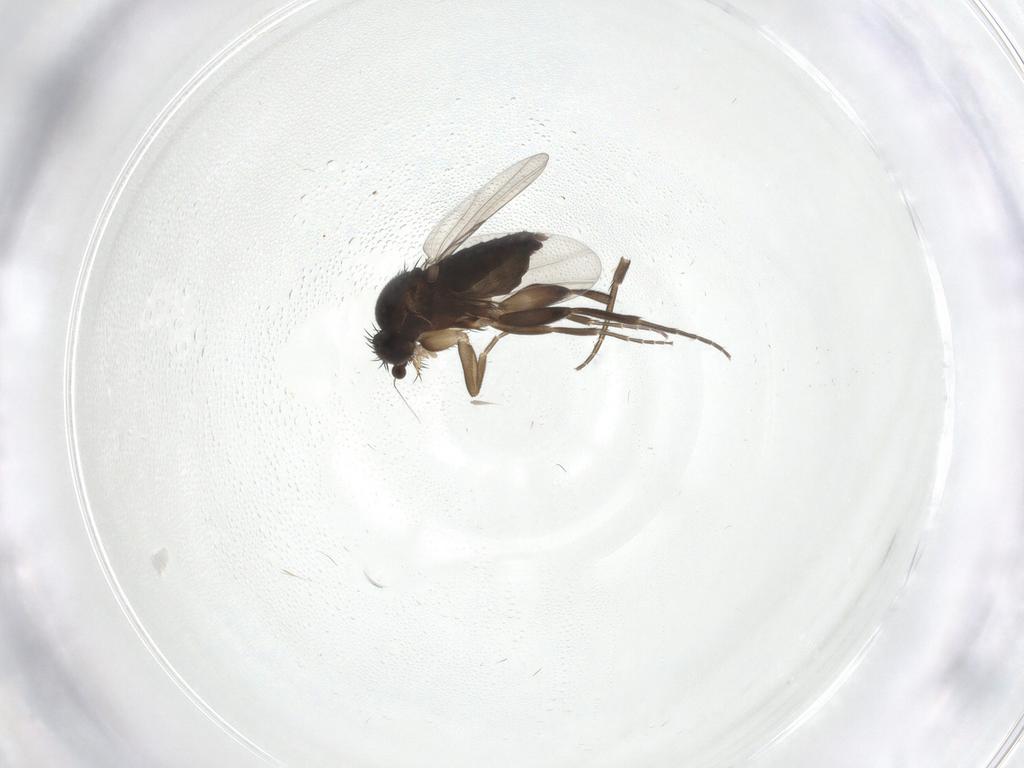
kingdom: Animalia
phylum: Arthropoda
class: Insecta
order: Diptera
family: Phoridae
